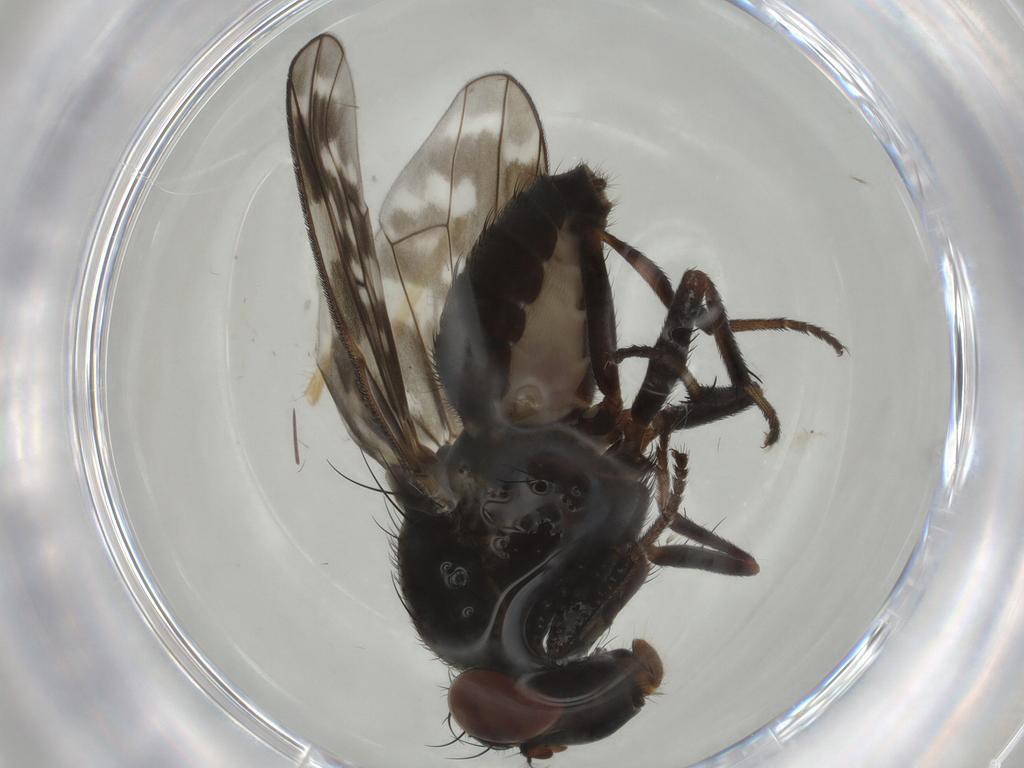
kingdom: Animalia
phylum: Arthropoda
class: Insecta
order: Diptera
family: Chironomidae
